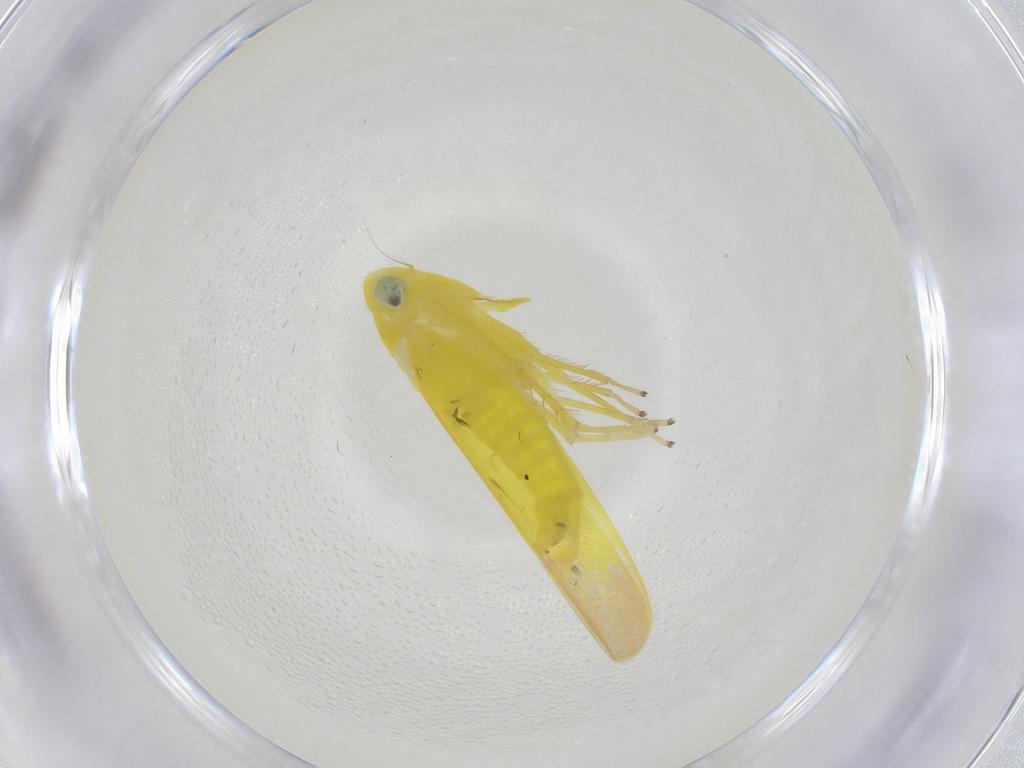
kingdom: Animalia
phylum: Arthropoda
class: Insecta
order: Hemiptera
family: Cicadellidae
